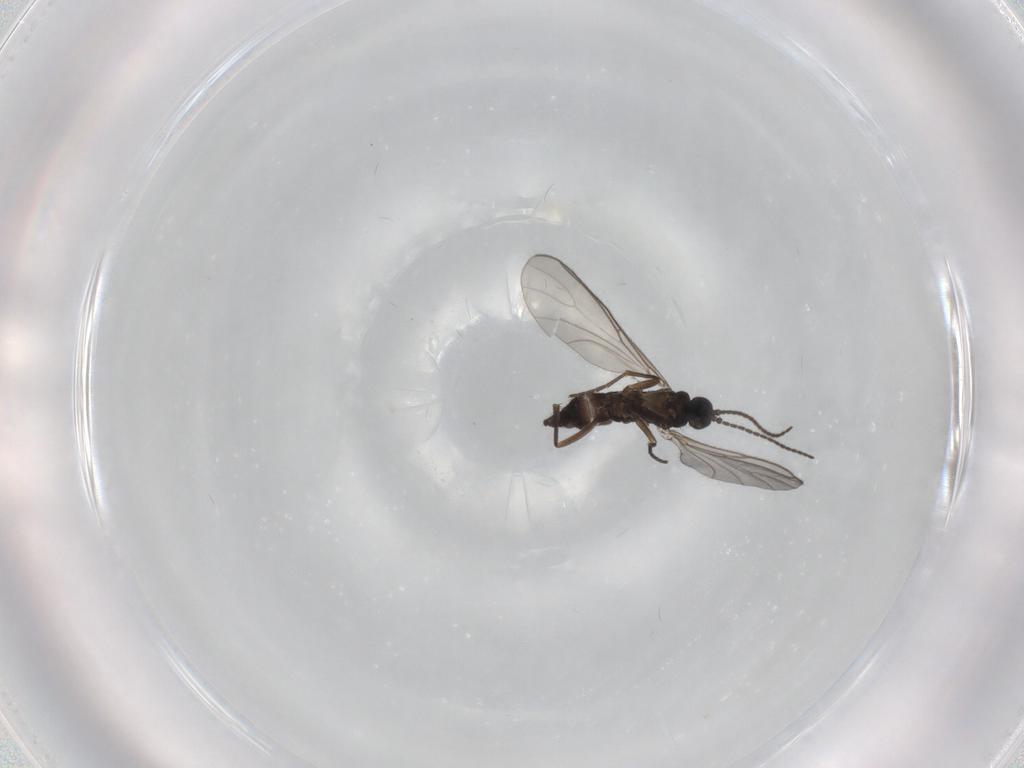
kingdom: Animalia
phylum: Arthropoda
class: Insecta
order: Diptera
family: Sciaridae
